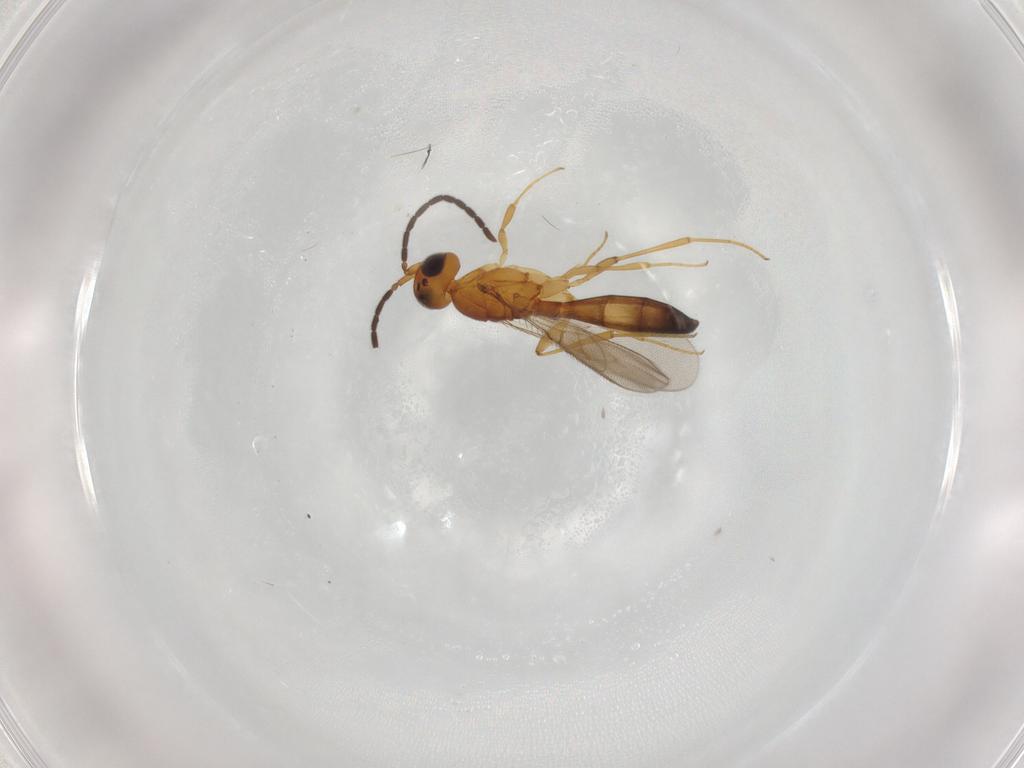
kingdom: Animalia
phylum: Arthropoda
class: Insecta
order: Hymenoptera
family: Scelionidae
